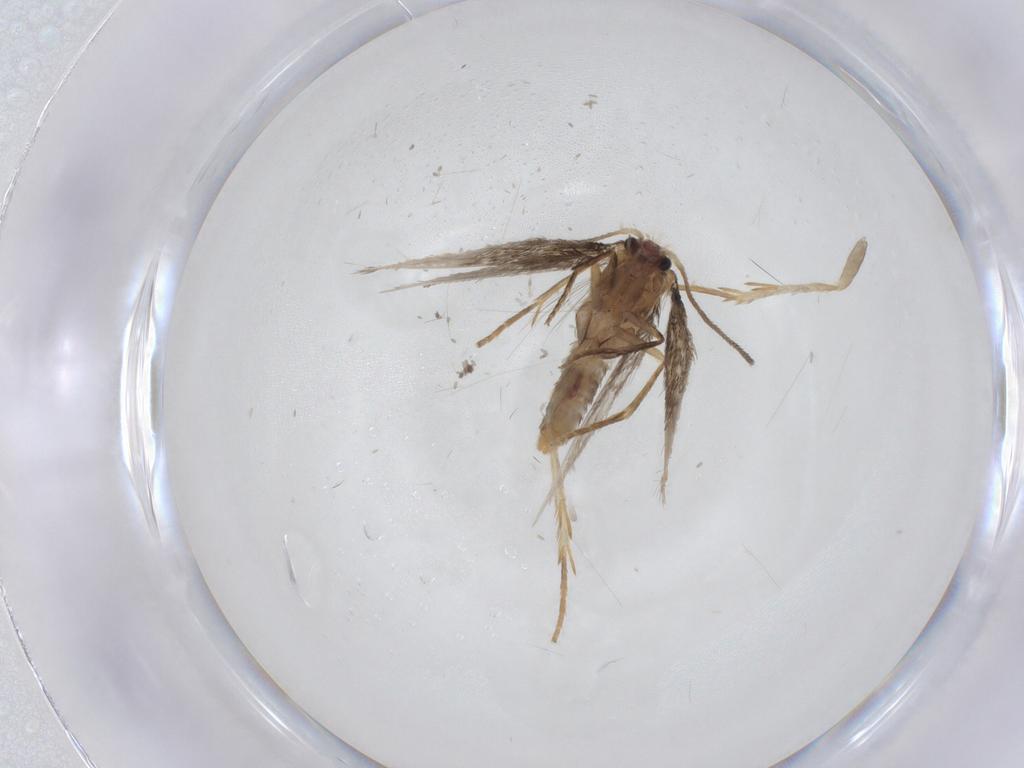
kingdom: Animalia
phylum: Arthropoda
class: Insecta
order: Lepidoptera
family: Nepticulidae
